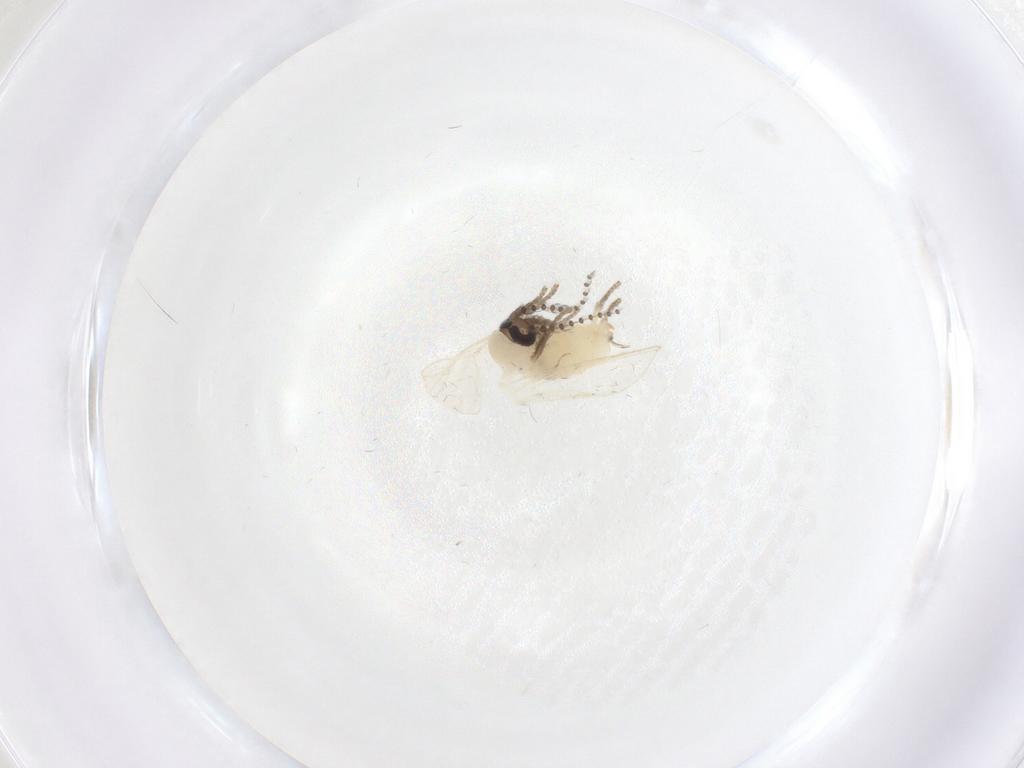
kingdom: Animalia
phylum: Arthropoda
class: Insecta
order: Diptera
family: Psychodidae
